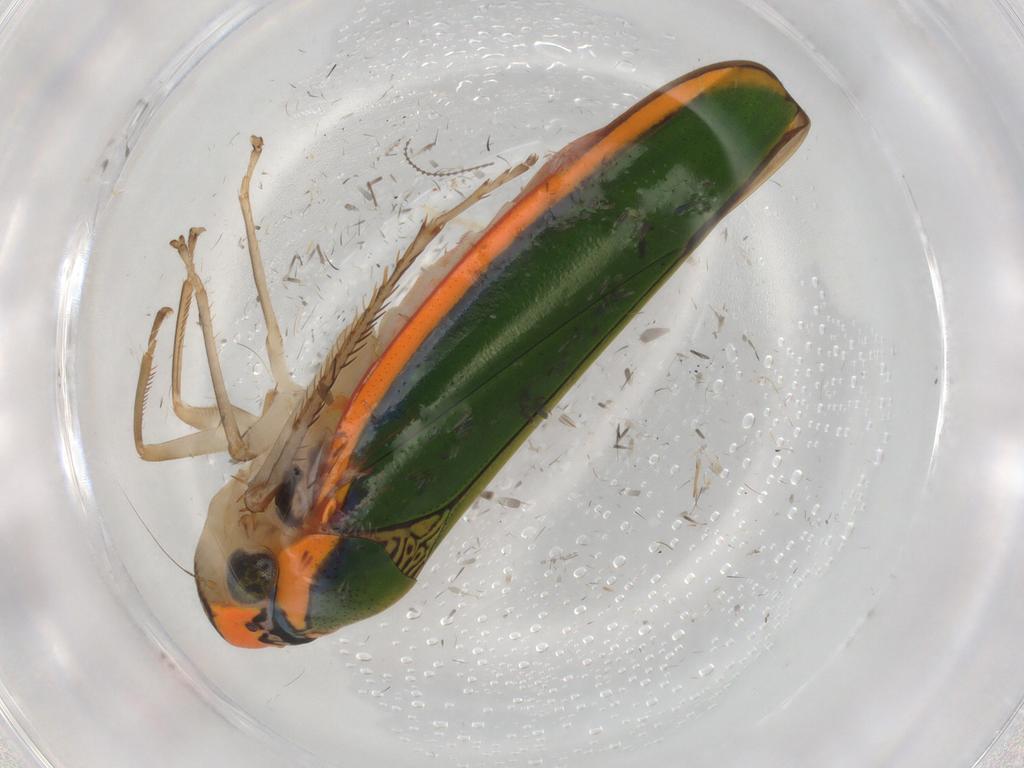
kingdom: Animalia
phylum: Arthropoda
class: Insecta
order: Hemiptera
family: Cicadellidae
